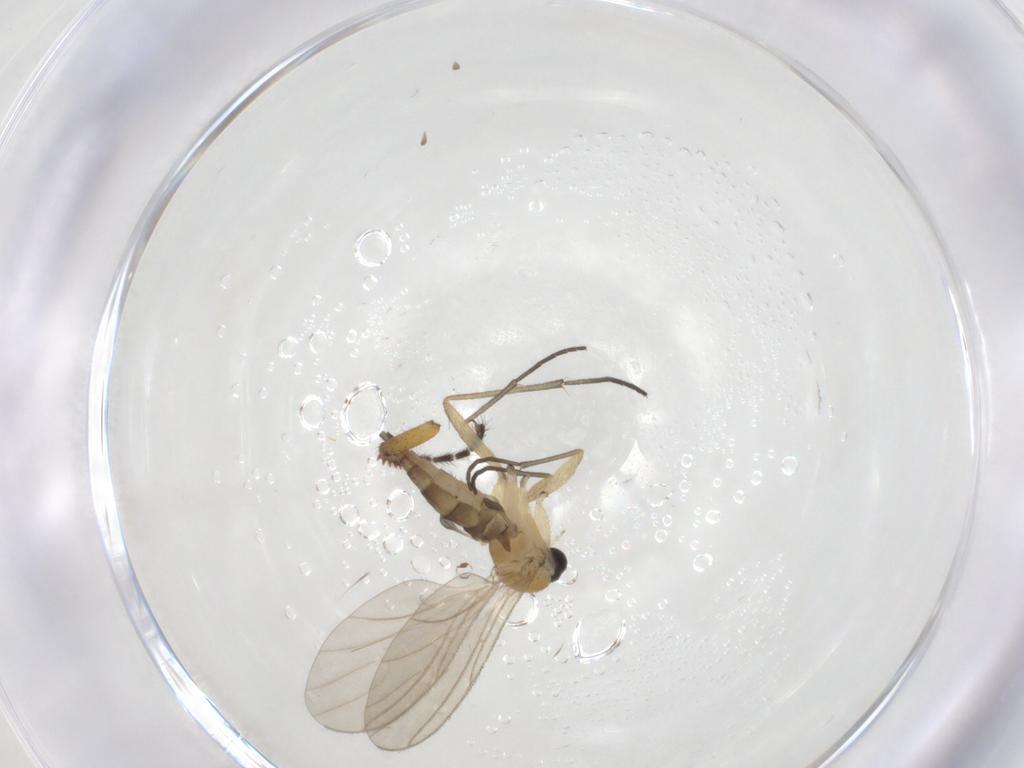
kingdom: Animalia
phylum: Arthropoda
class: Insecta
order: Diptera
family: Sciaridae
